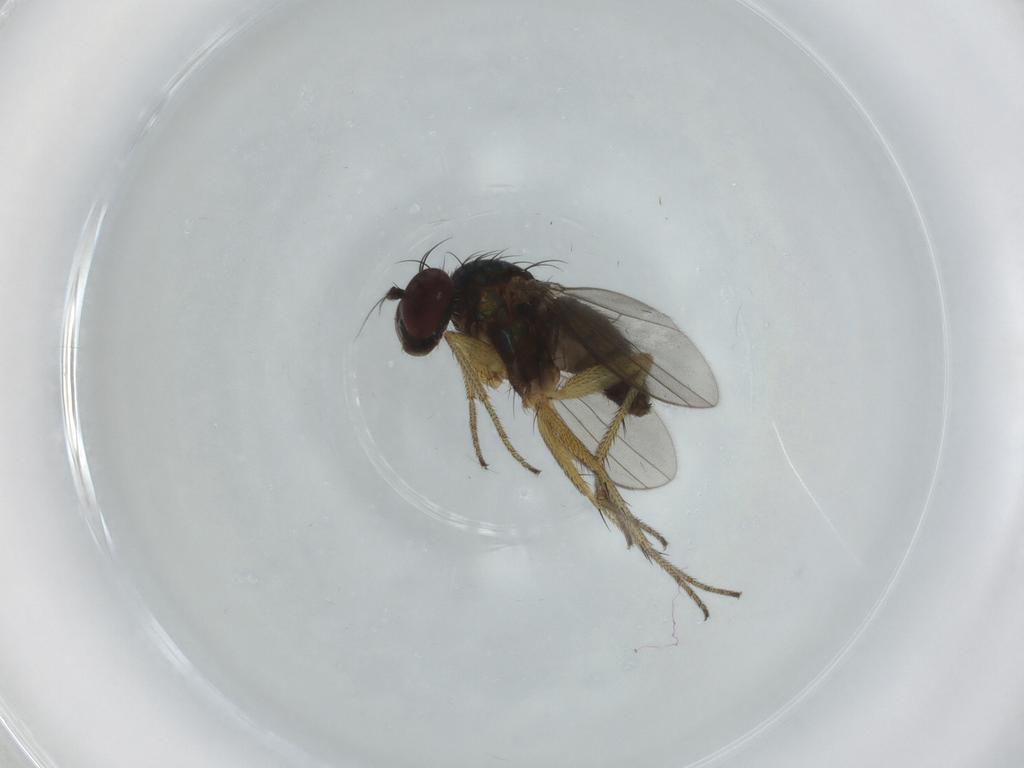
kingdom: Animalia
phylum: Arthropoda
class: Insecta
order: Diptera
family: Dolichopodidae
